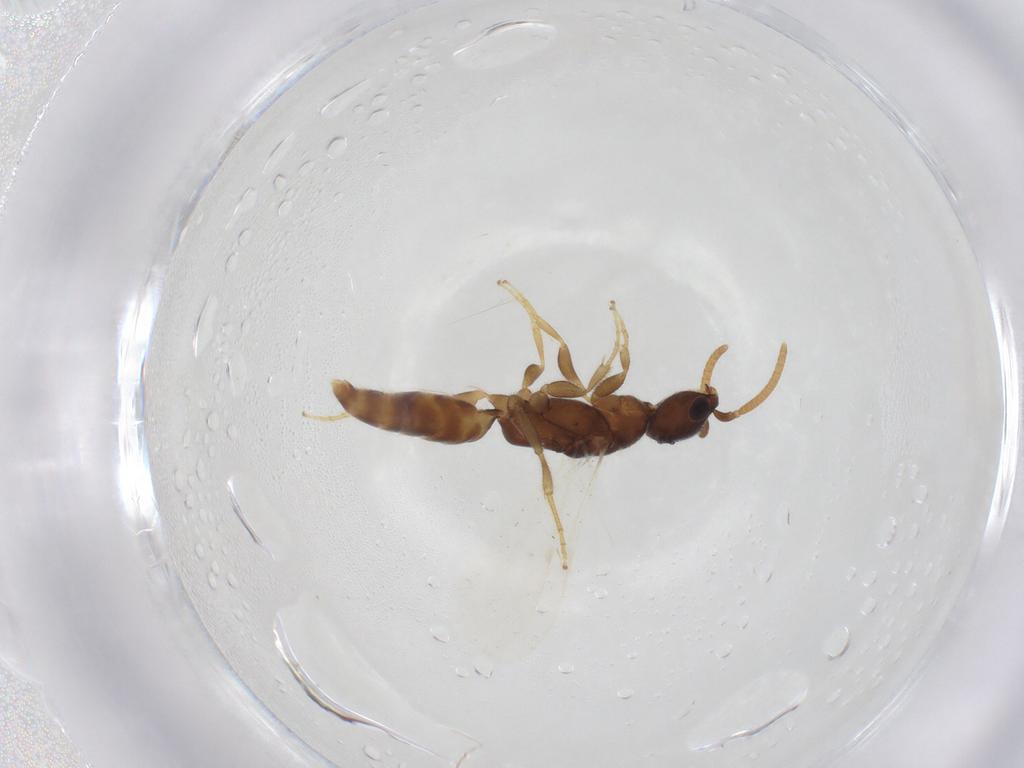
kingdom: Animalia
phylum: Arthropoda
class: Insecta
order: Hymenoptera
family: Bethylidae
